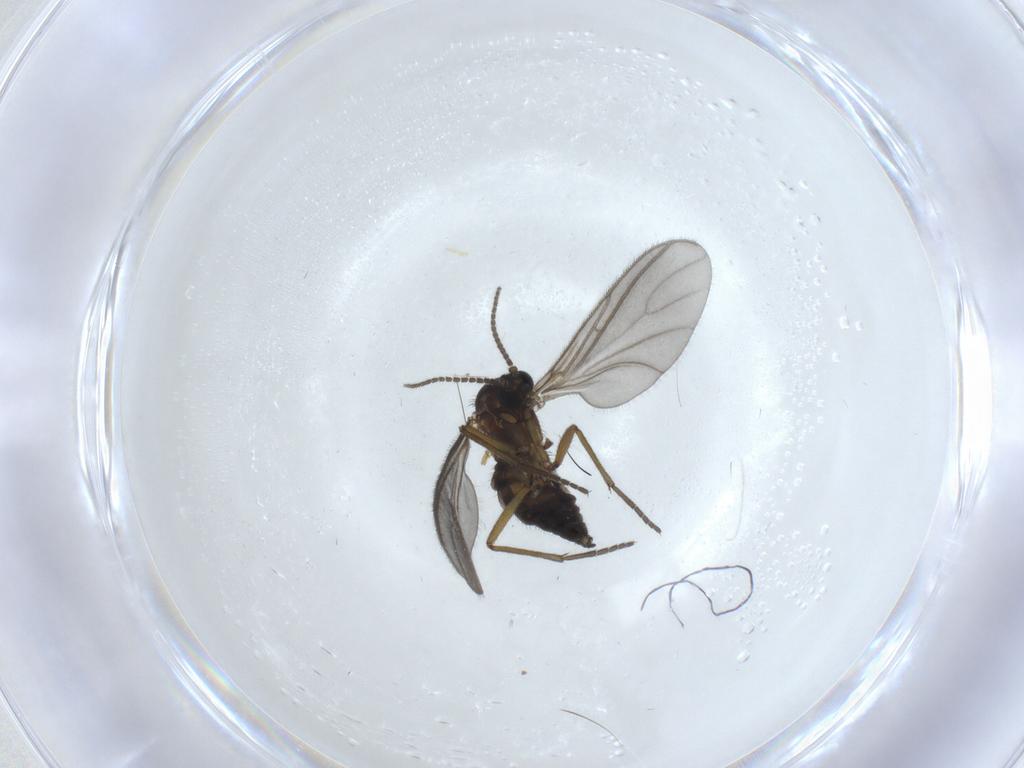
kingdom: Animalia
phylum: Arthropoda
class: Insecta
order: Diptera
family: Sciaridae
